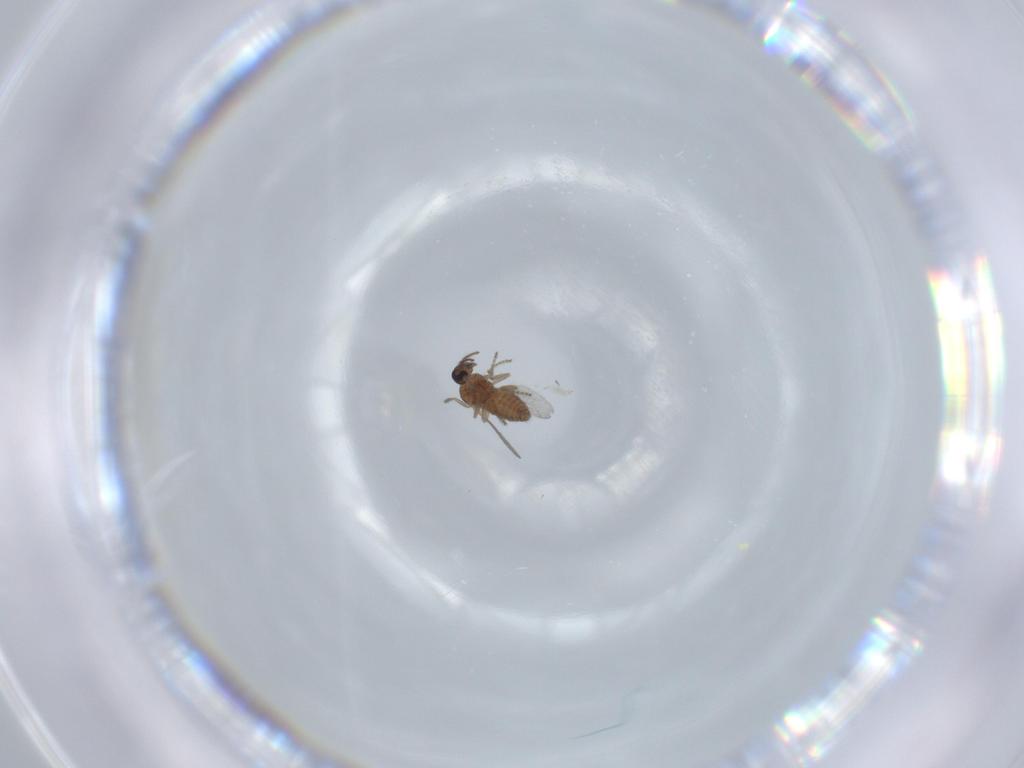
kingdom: Animalia
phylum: Arthropoda
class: Insecta
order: Diptera
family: Ceratopogonidae
